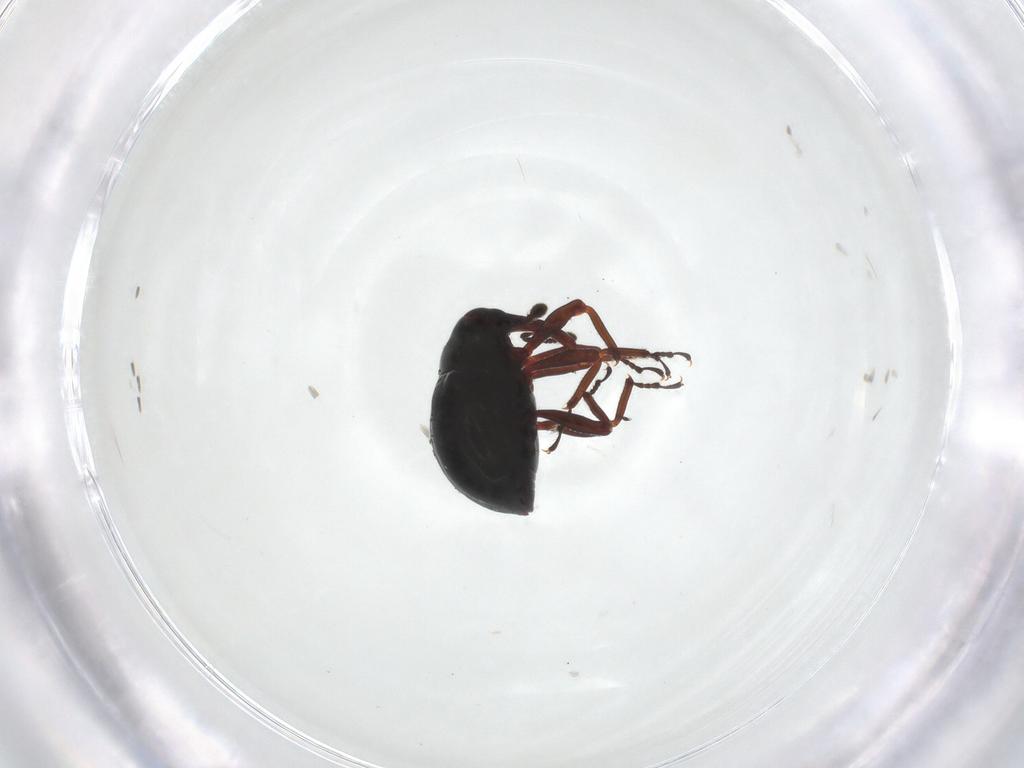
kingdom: Animalia
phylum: Arthropoda
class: Insecta
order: Coleoptera
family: Curculionidae
